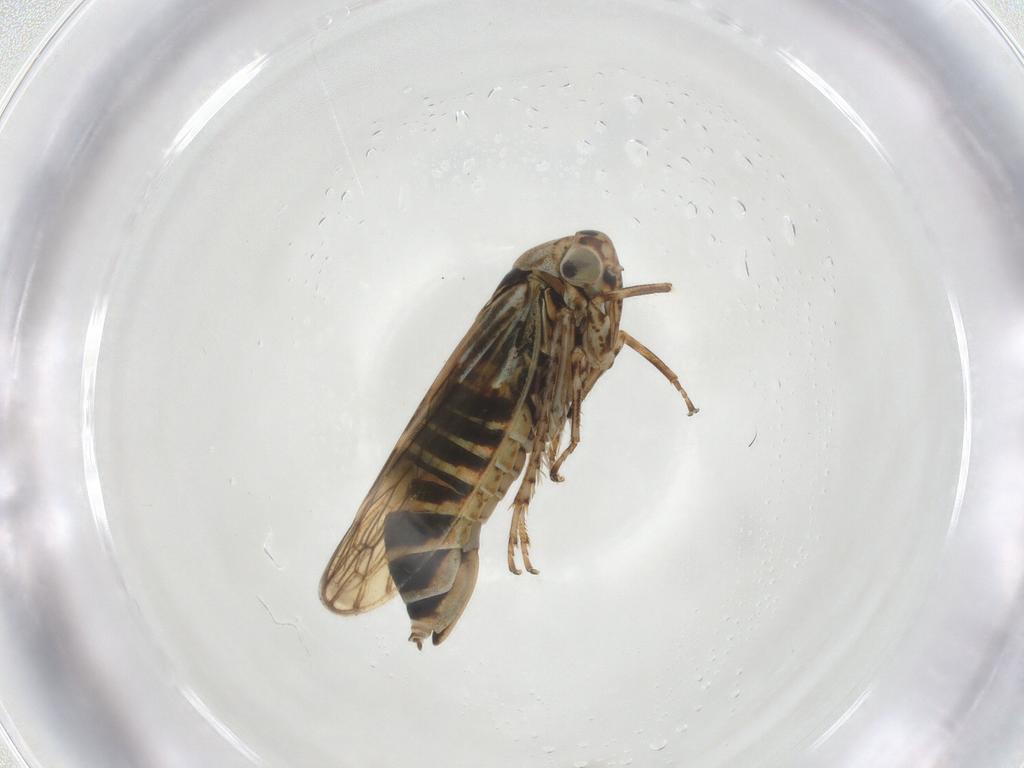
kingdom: Animalia
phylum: Arthropoda
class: Insecta
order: Hemiptera
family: Cicadellidae
